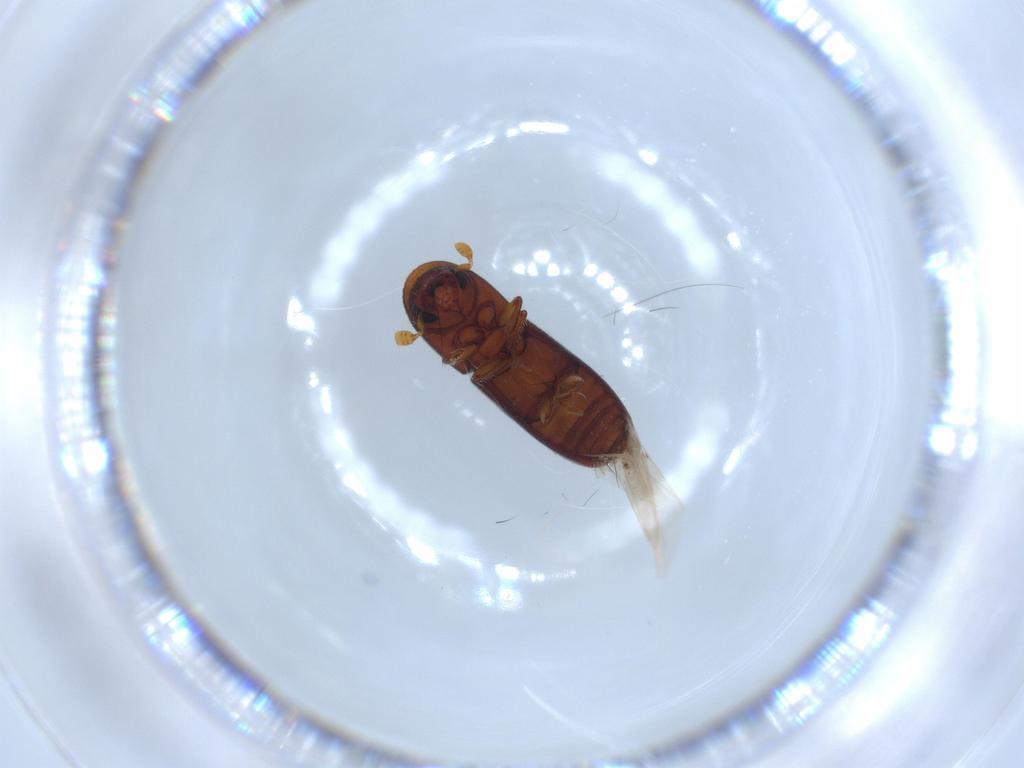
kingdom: Animalia
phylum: Arthropoda
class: Insecta
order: Coleoptera
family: Curculionidae
